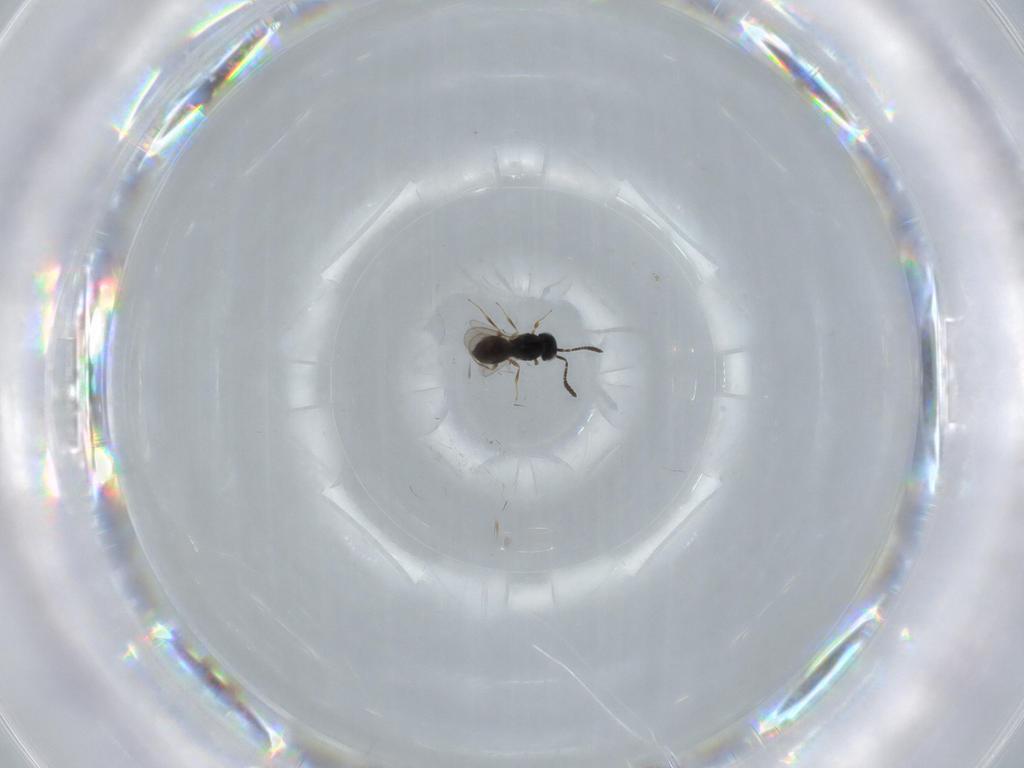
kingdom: Animalia
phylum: Arthropoda
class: Insecta
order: Hymenoptera
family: Scelionidae
